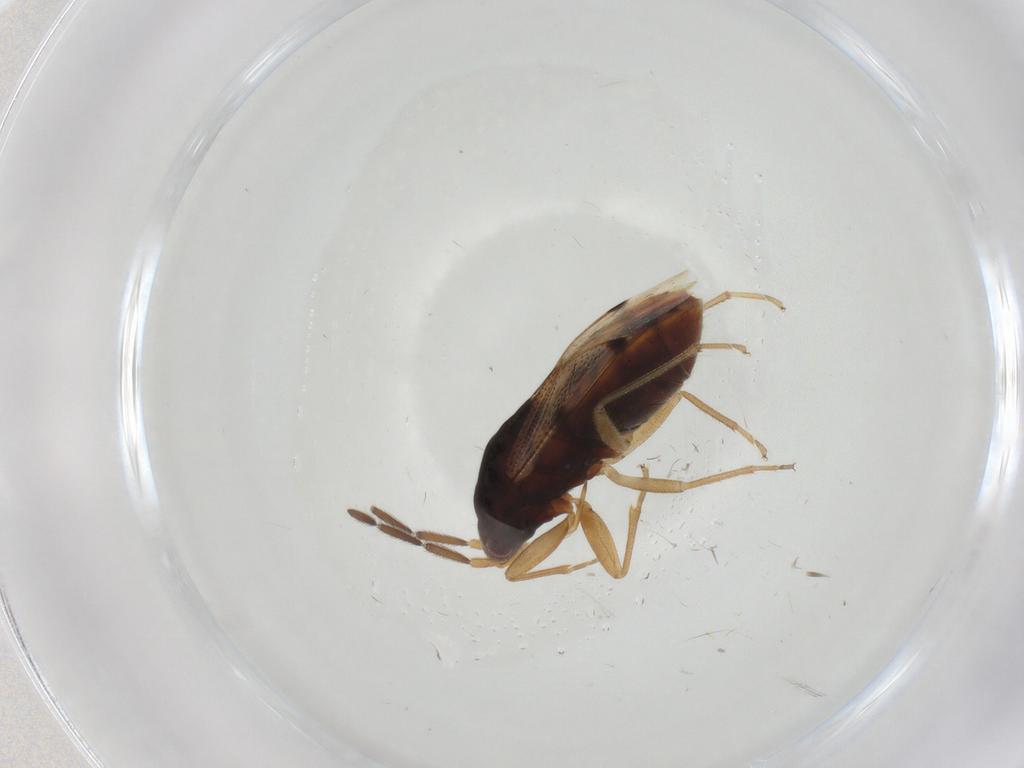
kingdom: Animalia
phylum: Arthropoda
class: Insecta
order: Hemiptera
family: Rhyparochromidae
